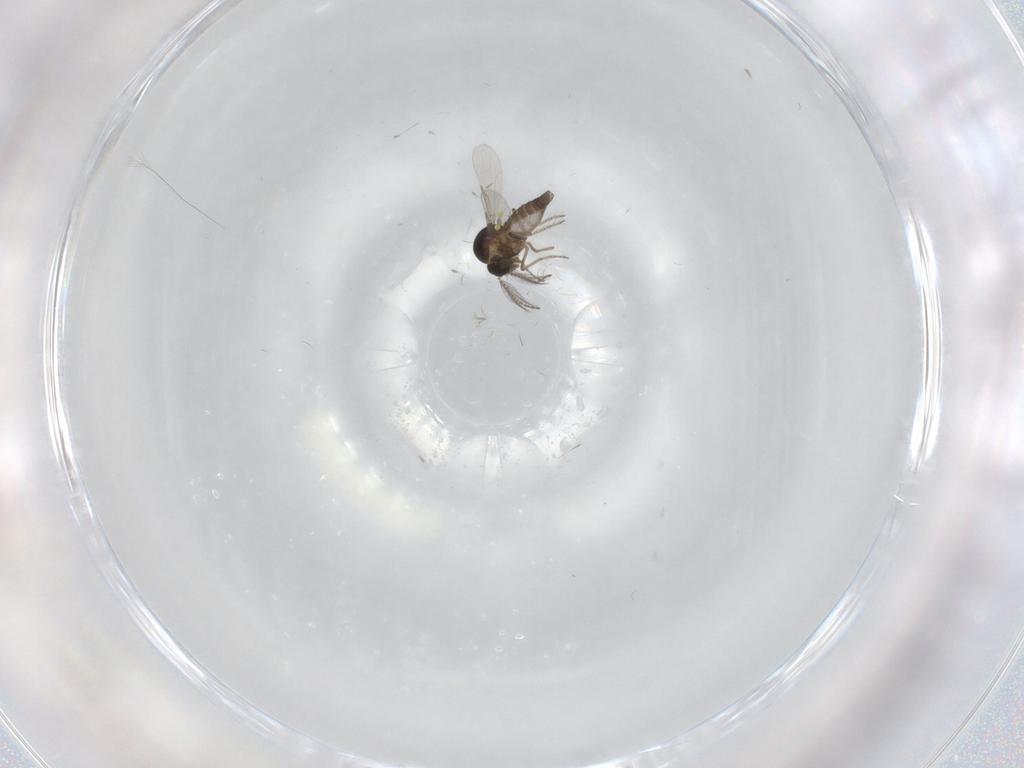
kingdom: Animalia
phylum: Arthropoda
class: Insecta
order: Diptera
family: Ceratopogonidae
